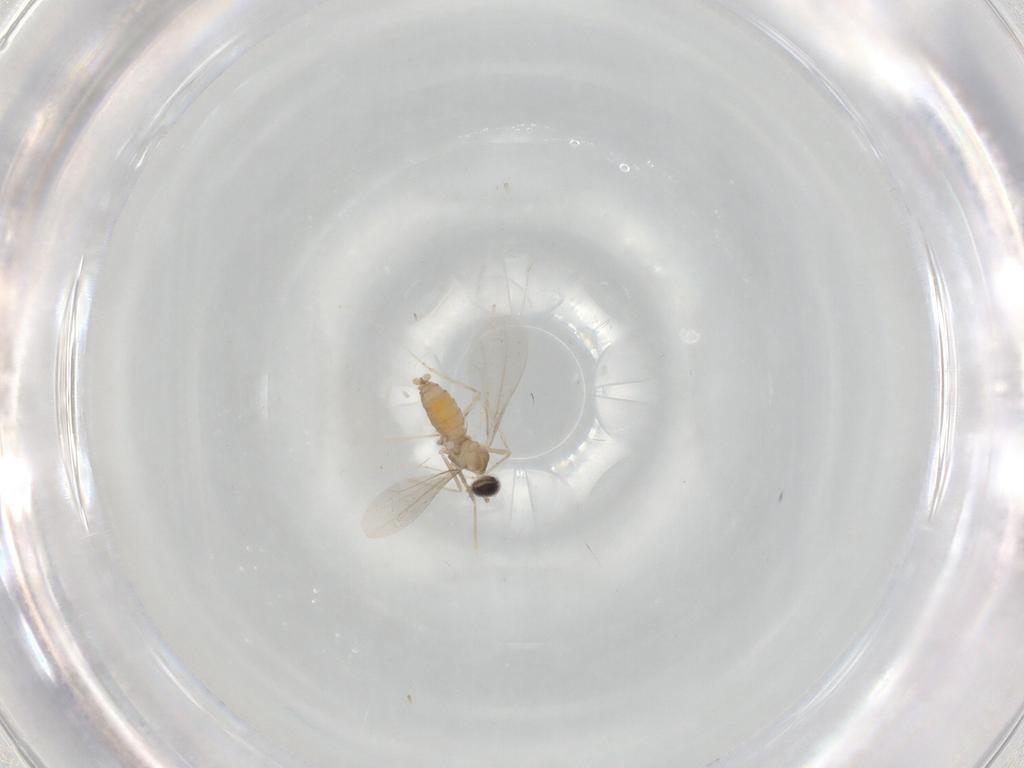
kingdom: Animalia
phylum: Arthropoda
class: Insecta
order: Diptera
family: Cecidomyiidae
